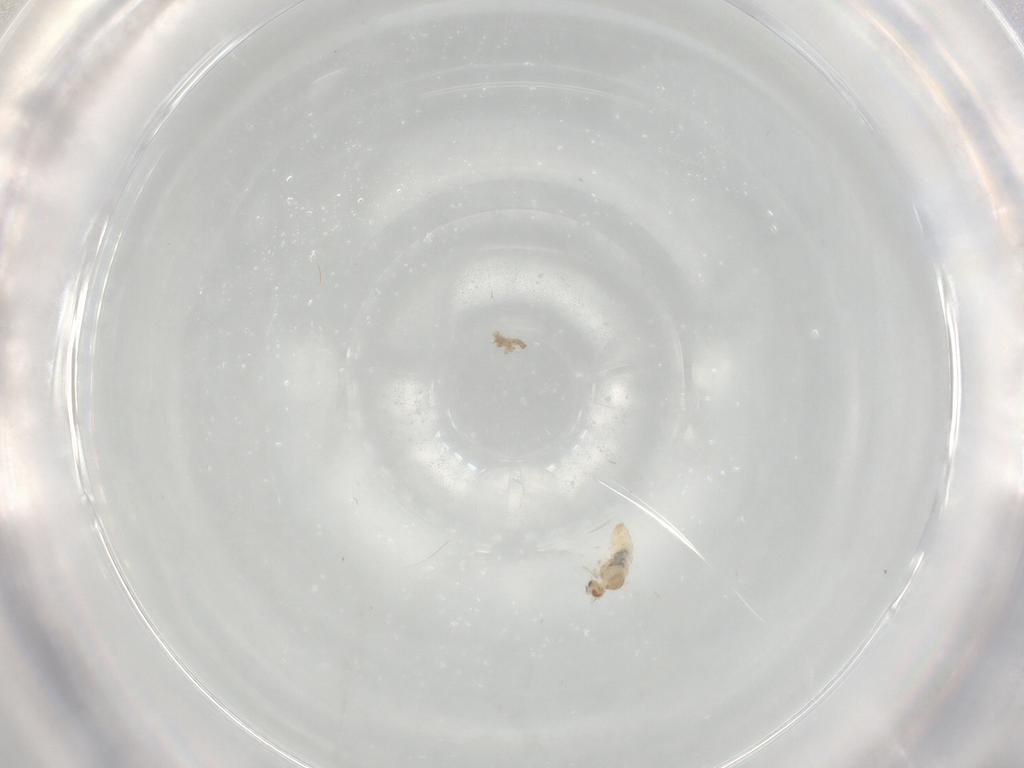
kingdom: Animalia
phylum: Arthropoda
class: Insecta
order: Diptera
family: Cecidomyiidae
